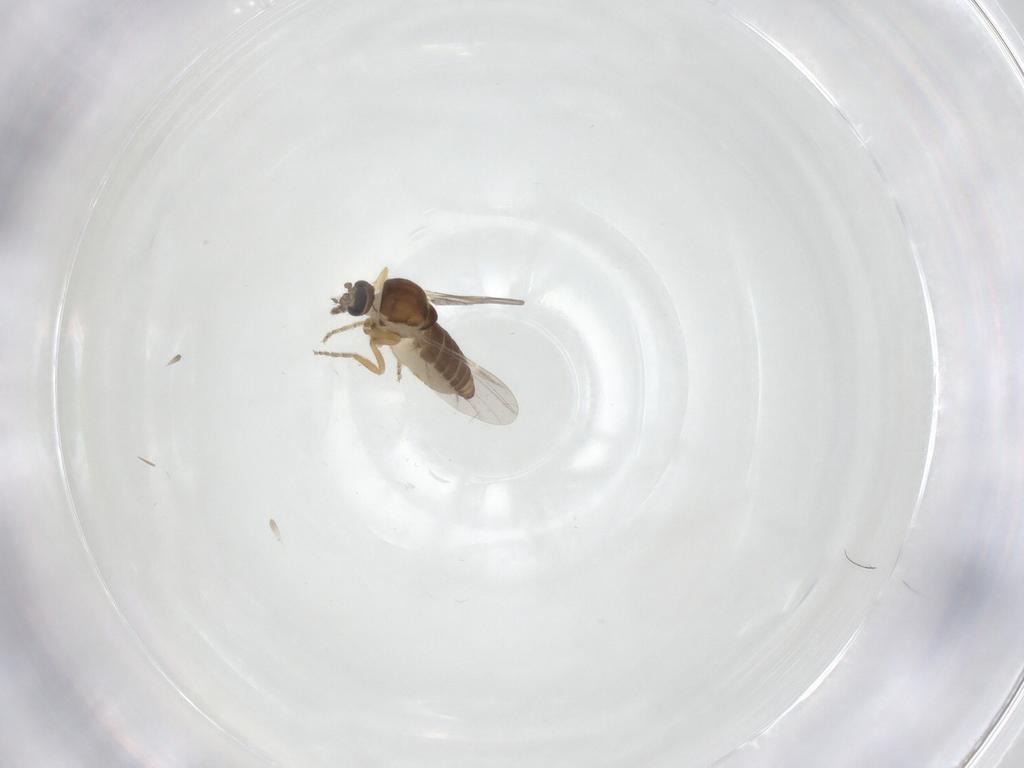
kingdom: Animalia
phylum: Arthropoda
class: Insecta
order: Diptera
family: Ceratopogonidae
